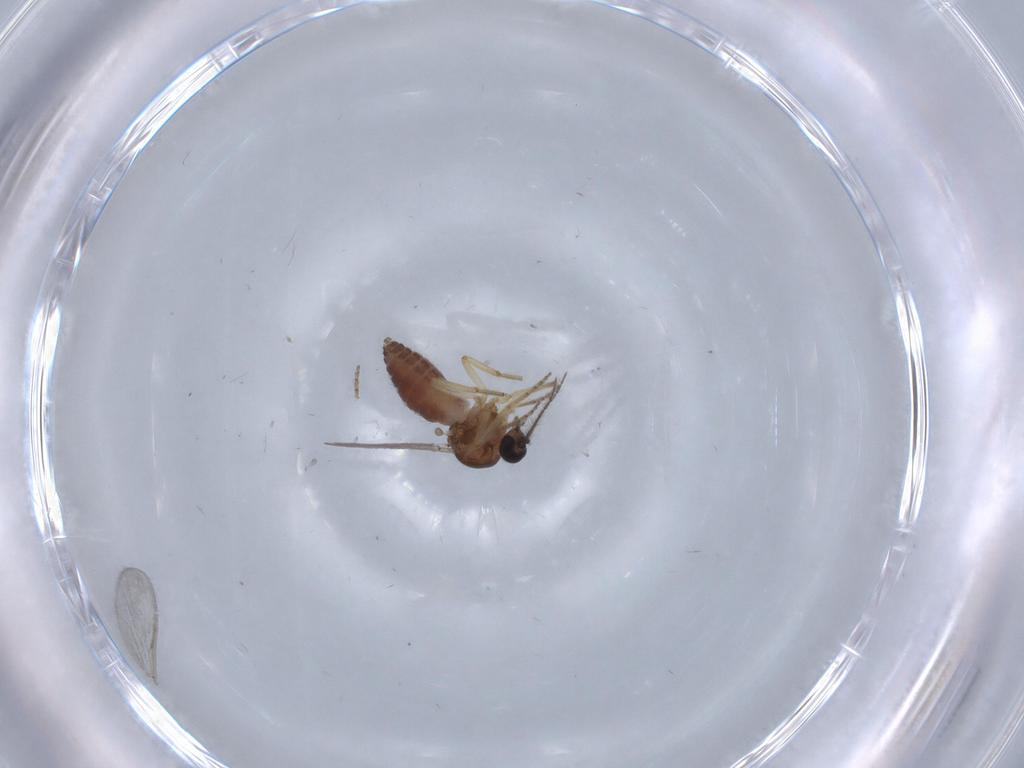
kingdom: Animalia
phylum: Arthropoda
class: Insecta
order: Diptera
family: Ceratopogonidae
